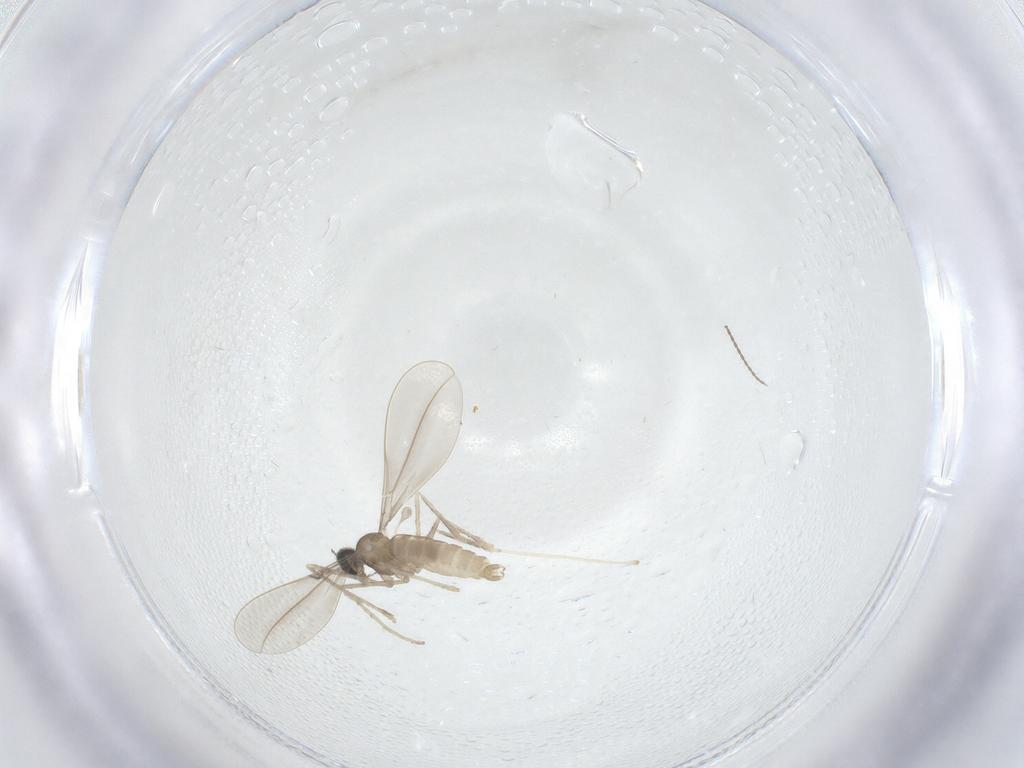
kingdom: Animalia
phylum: Arthropoda
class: Insecta
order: Diptera
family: Cecidomyiidae
